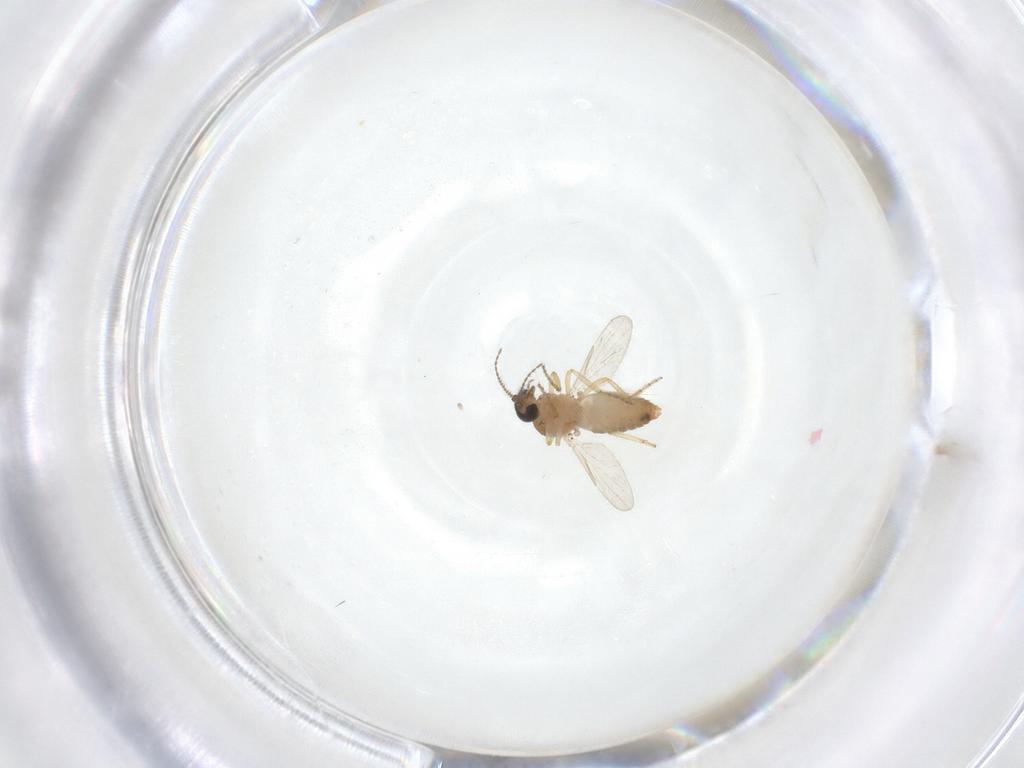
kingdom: Animalia
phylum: Arthropoda
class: Insecta
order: Diptera
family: Ceratopogonidae
